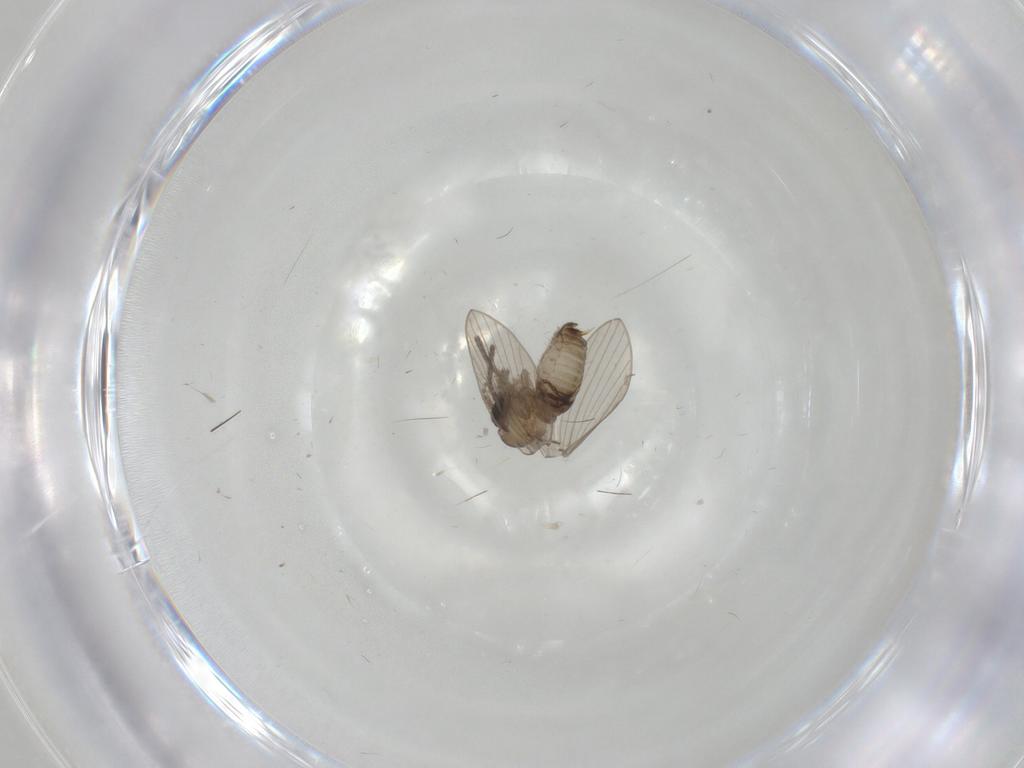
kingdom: Animalia
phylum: Arthropoda
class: Insecta
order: Diptera
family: Psychodidae
